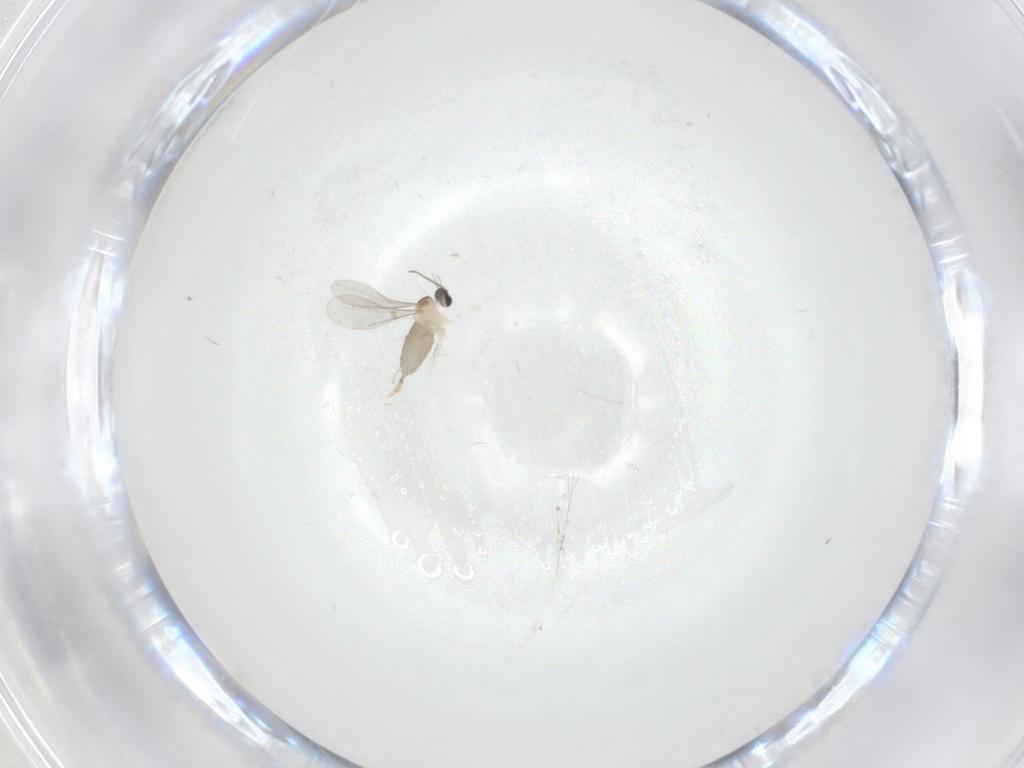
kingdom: Animalia
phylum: Arthropoda
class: Insecta
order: Diptera
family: Cecidomyiidae
